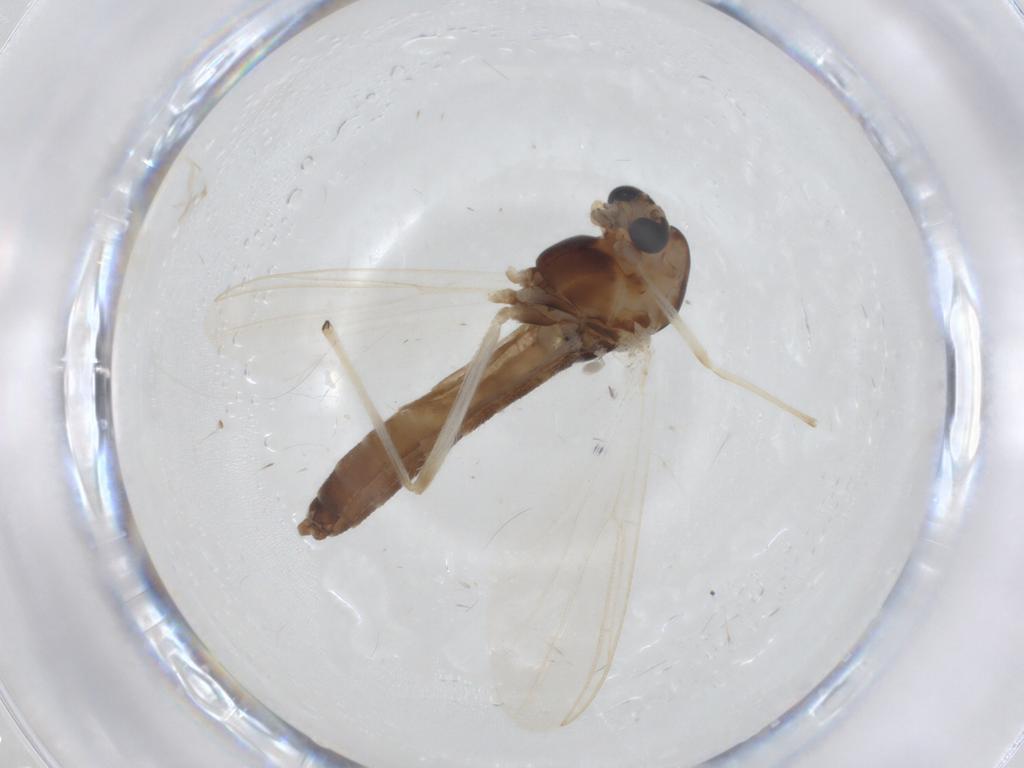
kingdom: Animalia
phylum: Arthropoda
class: Insecta
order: Diptera
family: Chironomidae
